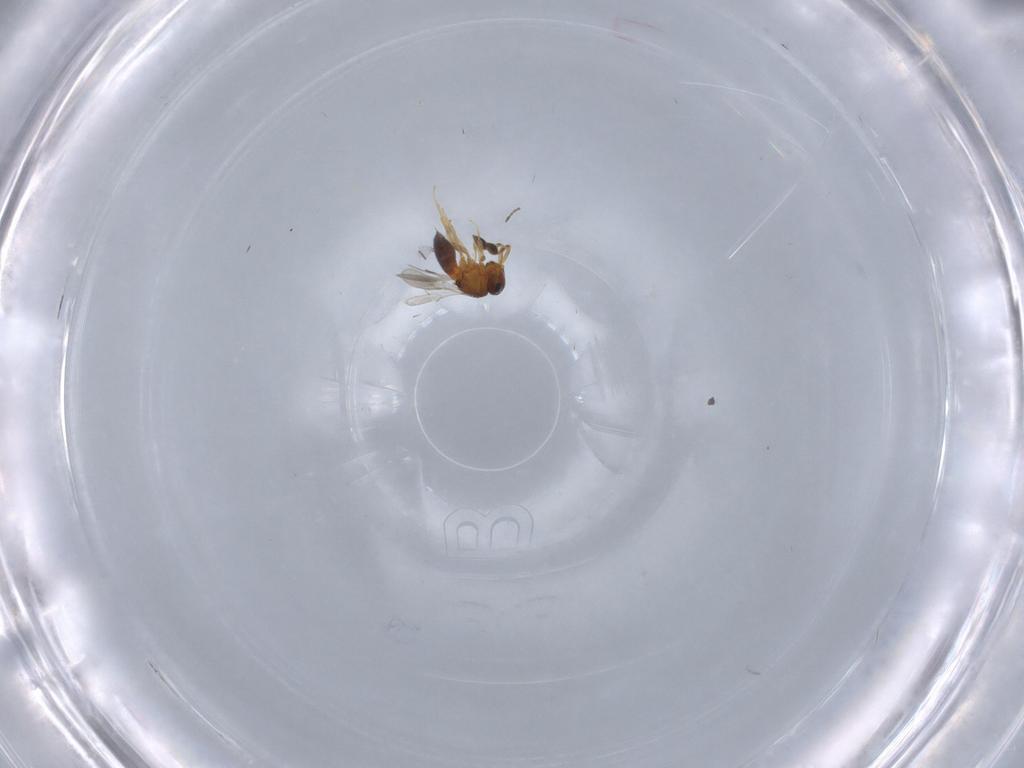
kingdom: Animalia
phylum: Arthropoda
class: Insecta
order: Hymenoptera
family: Scelionidae
